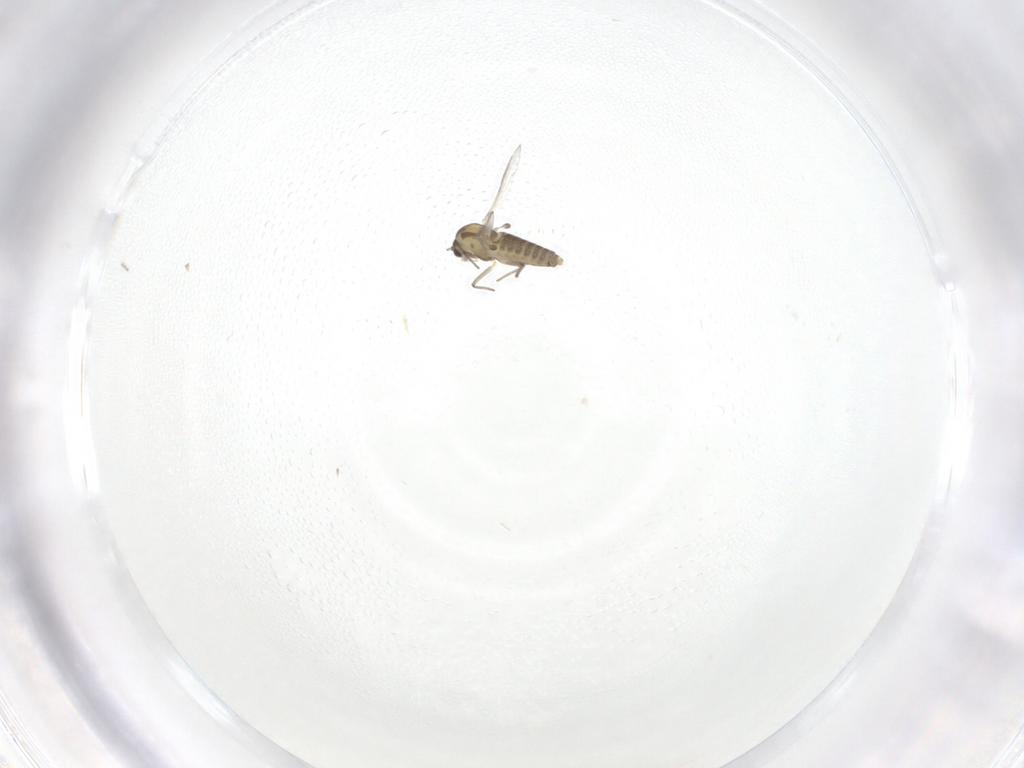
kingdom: Animalia
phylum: Arthropoda
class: Insecta
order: Diptera
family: Chironomidae
